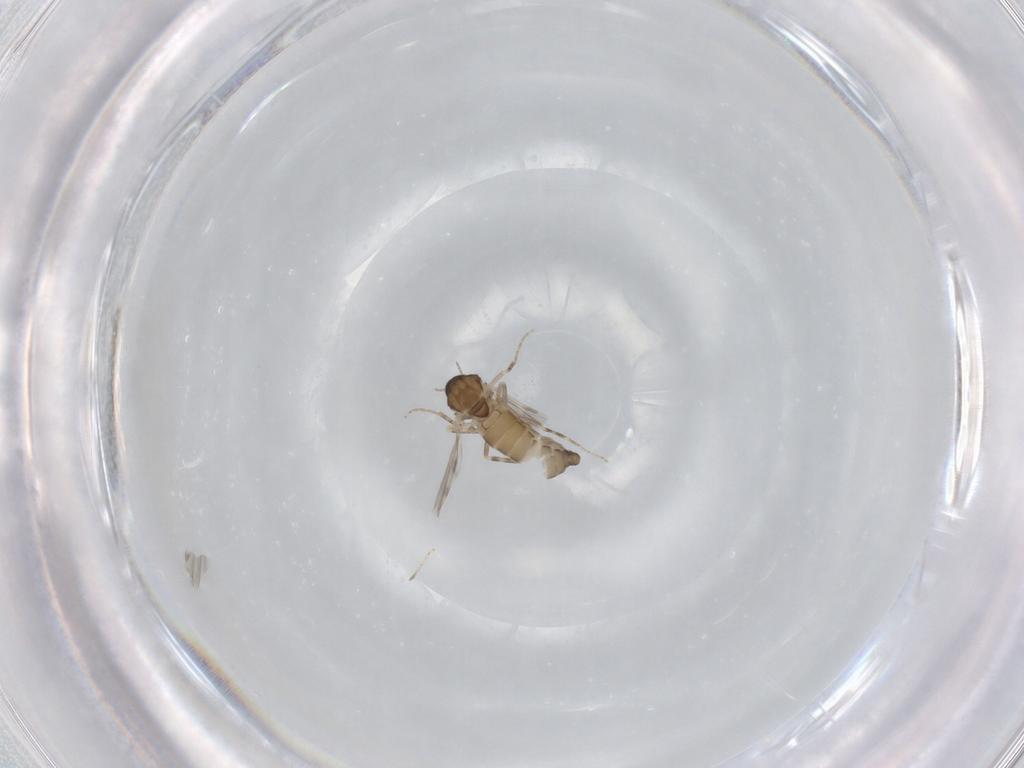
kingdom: Animalia
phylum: Arthropoda
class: Insecta
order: Diptera
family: Ceratopogonidae
